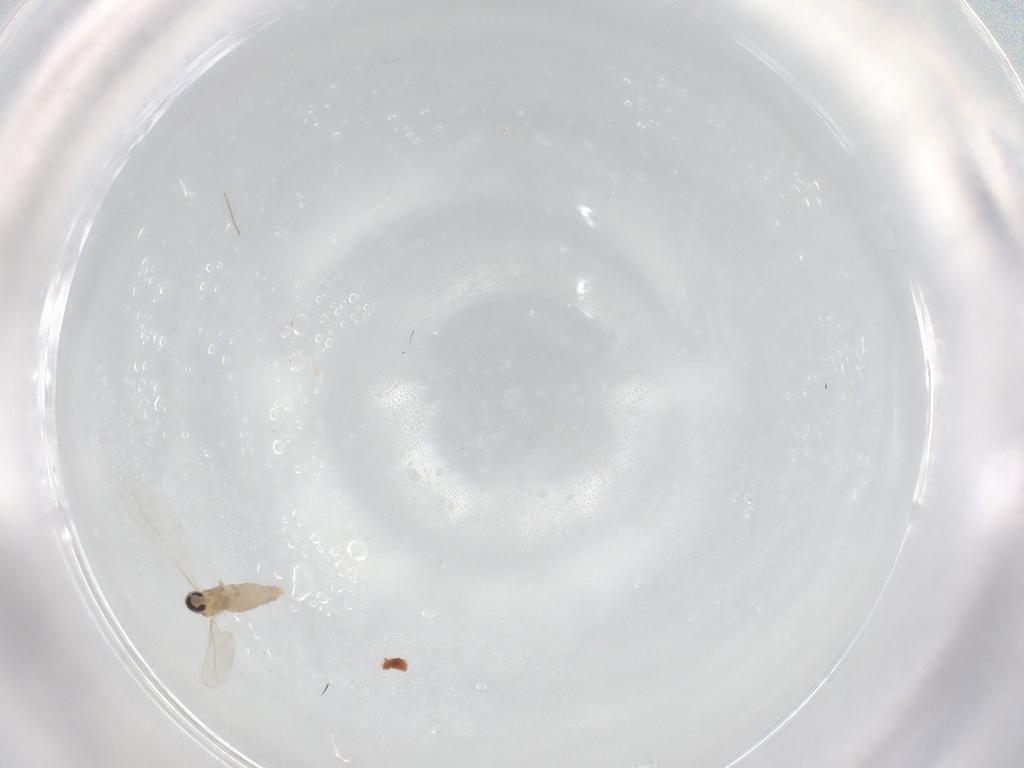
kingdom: Animalia
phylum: Arthropoda
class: Insecta
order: Diptera
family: Cecidomyiidae
